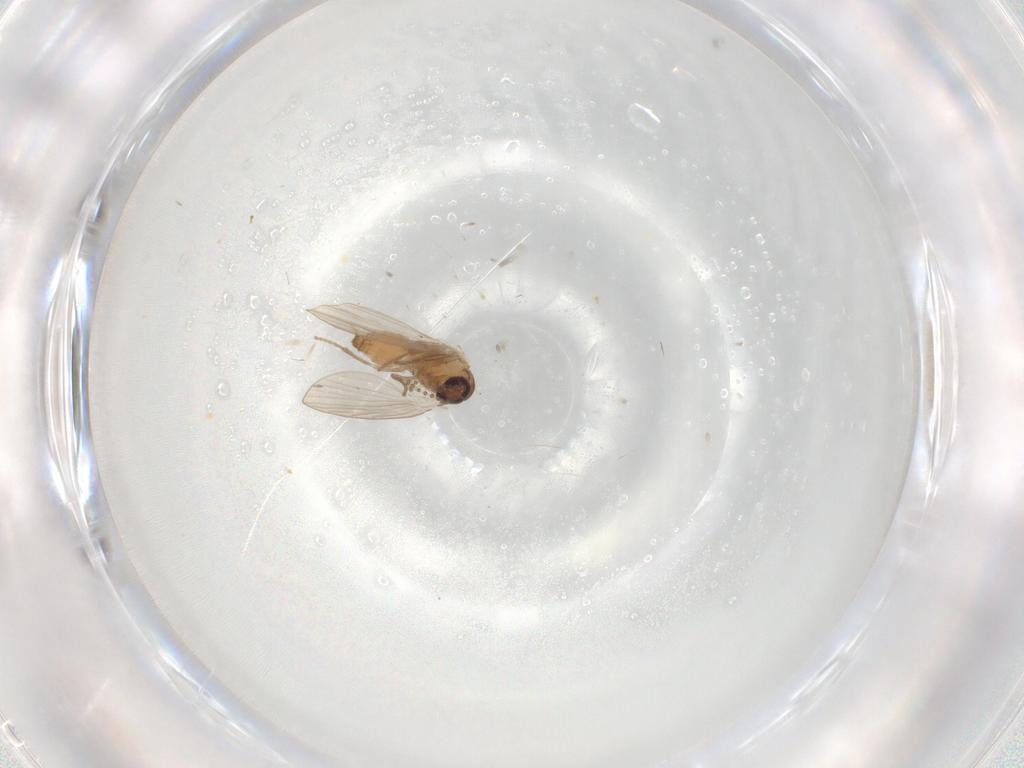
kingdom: Animalia
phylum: Arthropoda
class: Insecta
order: Diptera
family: Psychodidae
